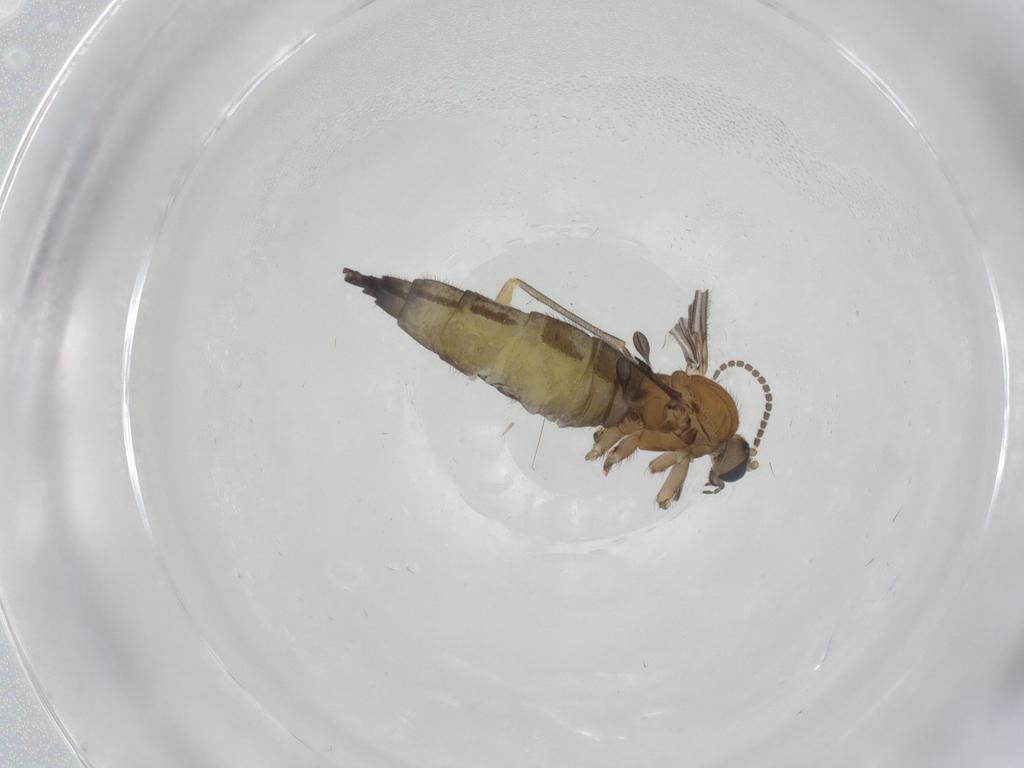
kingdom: Animalia
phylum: Arthropoda
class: Insecta
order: Diptera
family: Sciaridae
